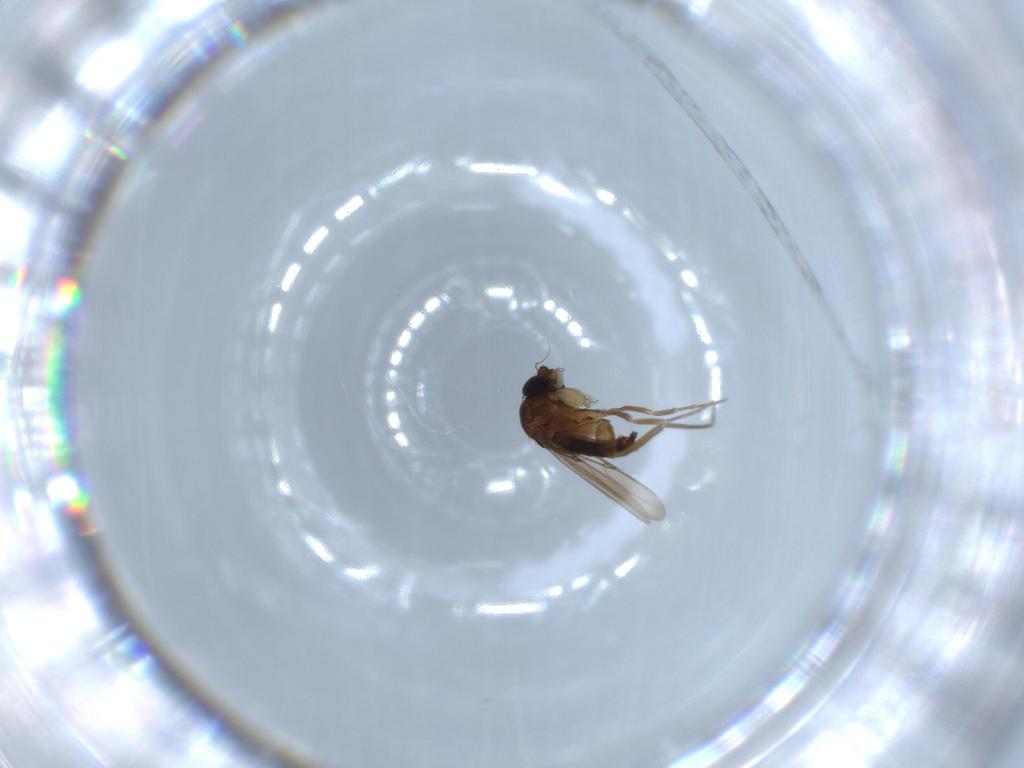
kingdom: Animalia
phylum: Arthropoda
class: Insecta
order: Diptera
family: Phoridae
